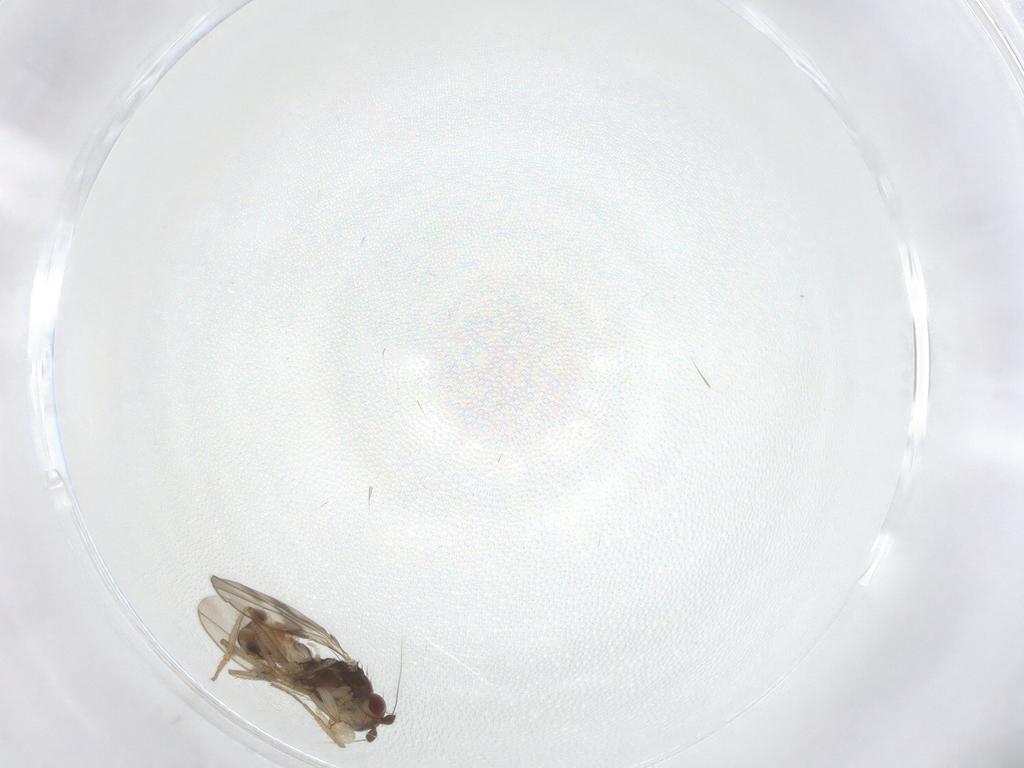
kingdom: Animalia
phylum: Arthropoda
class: Insecta
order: Diptera
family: Sphaeroceridae
